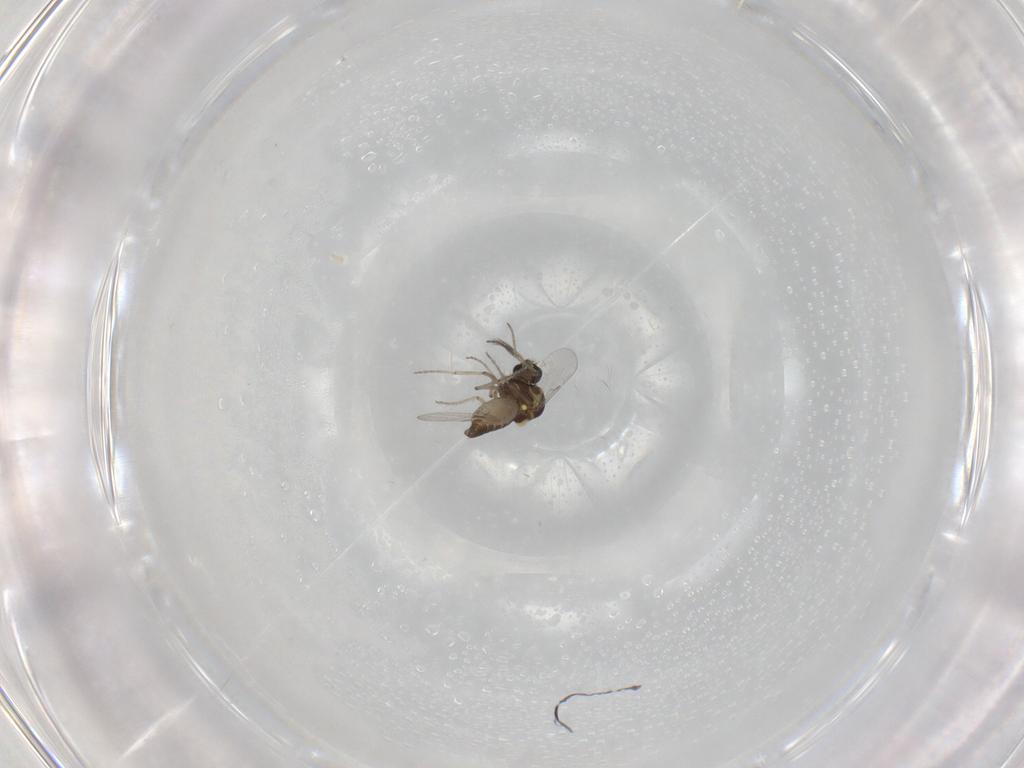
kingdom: Animalia
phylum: Arthropoda
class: Insecta
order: Diptera
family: Ceratopogonidae
